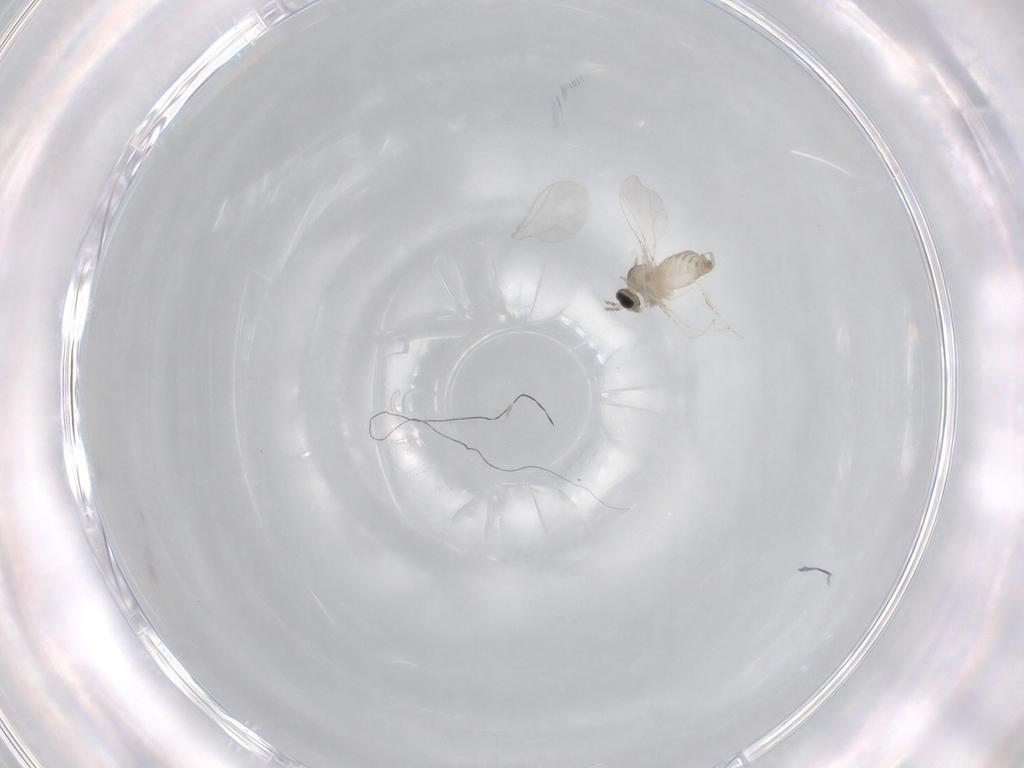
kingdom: Animalia
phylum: Arthropoda
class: Insecta
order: Diptera
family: Cecidomyiidae
